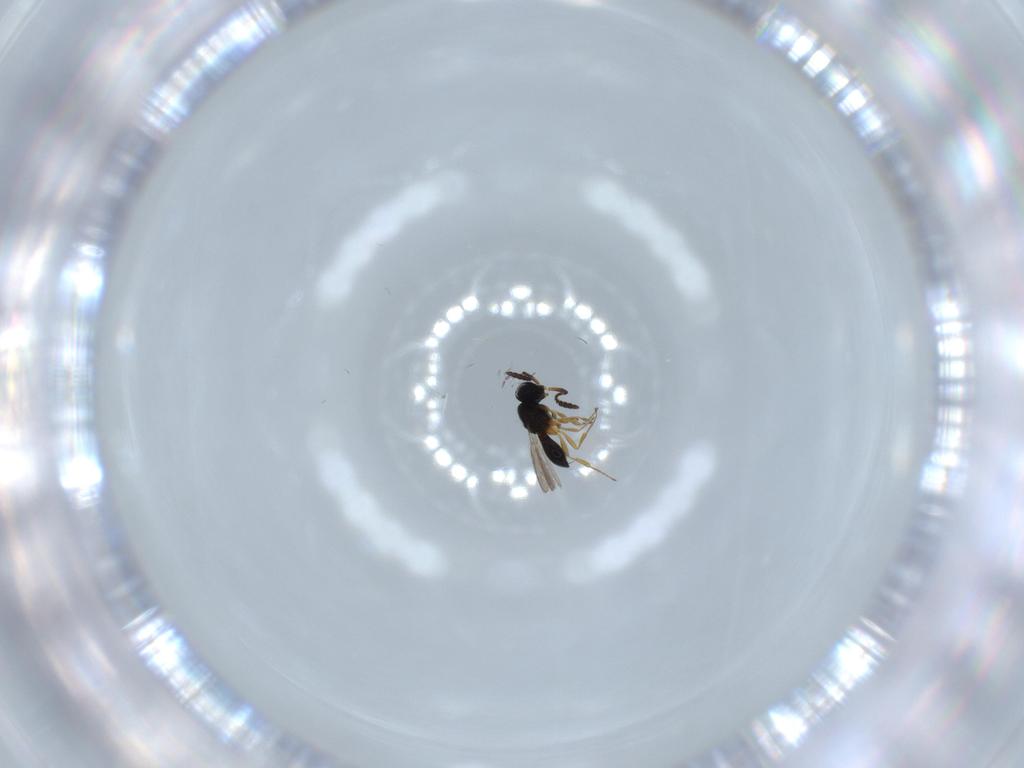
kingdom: Animalia
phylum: Arthropoda
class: Insecta
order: Hymenoptera
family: Scelionidae
